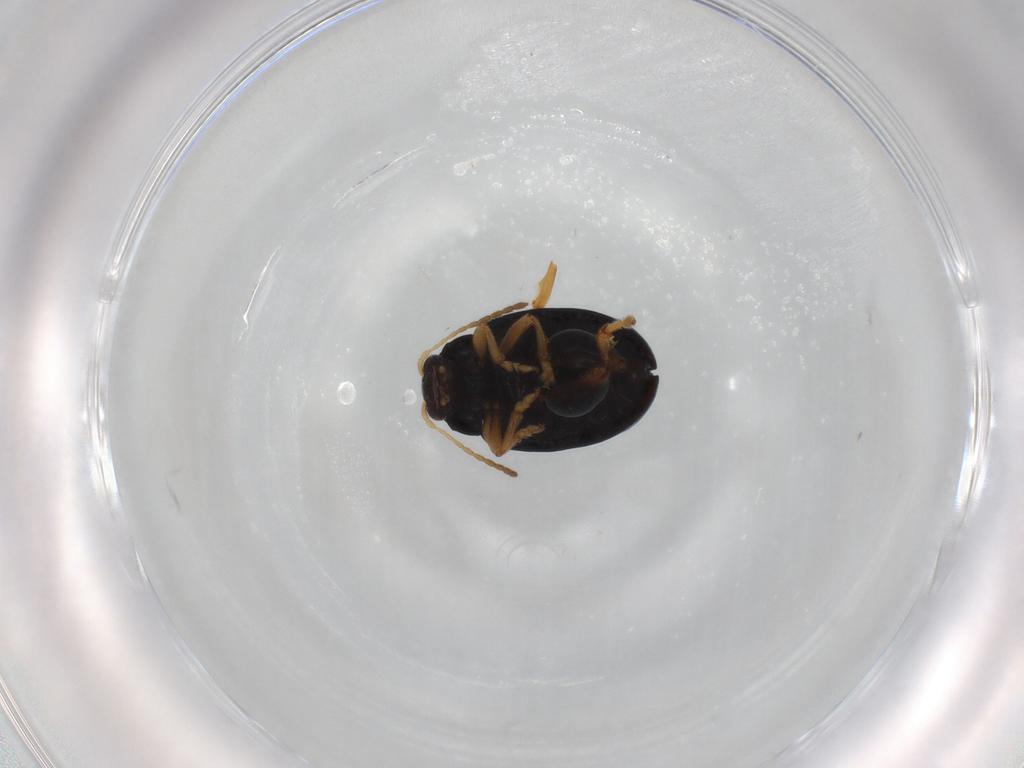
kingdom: Animalia
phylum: Arthropoda
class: Insecta
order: Coleoptera
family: Chrysomelidae
